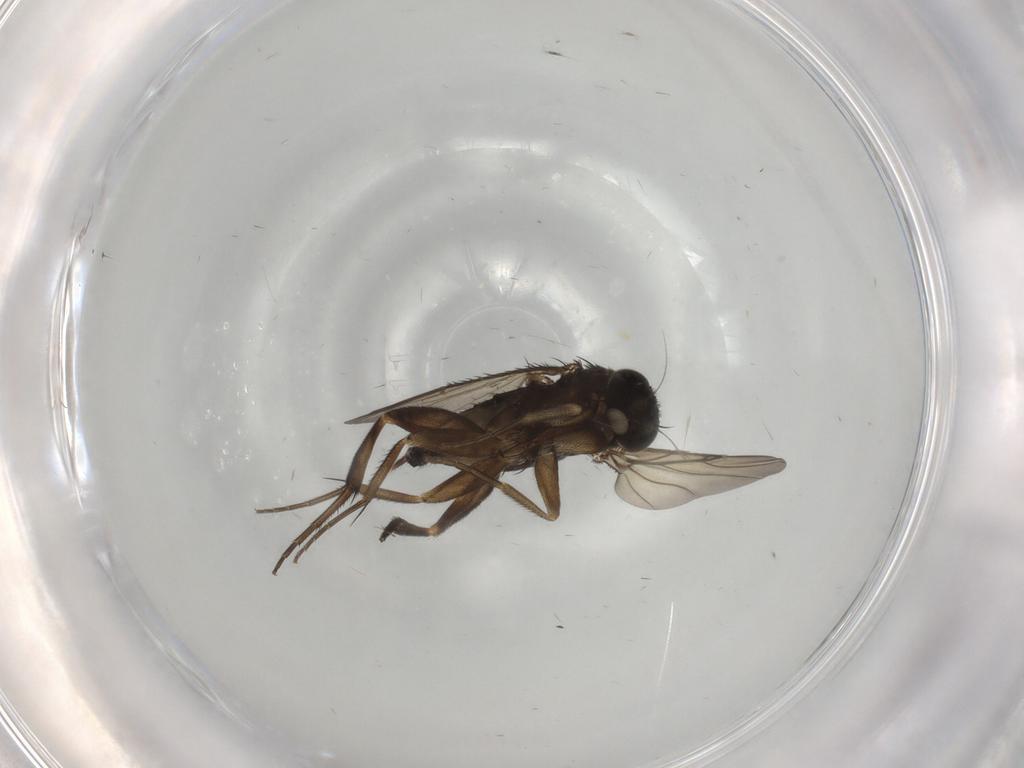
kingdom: Animalia
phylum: Arthropoda
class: Insecta
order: Diptera
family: Phoridae
